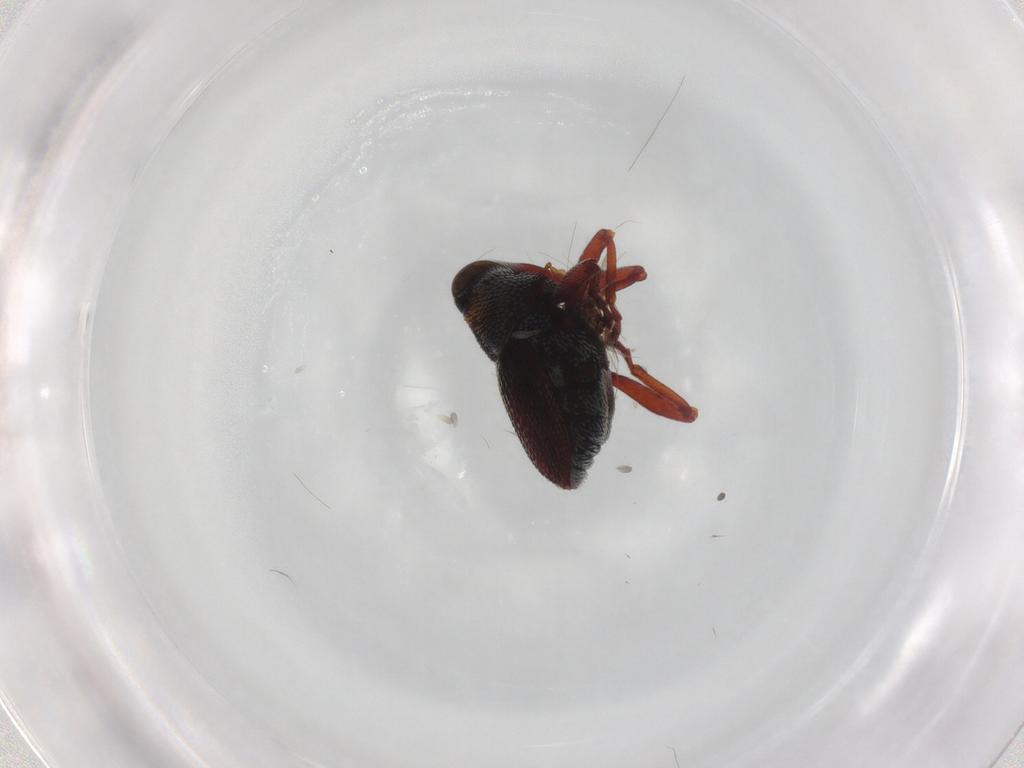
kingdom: Animalia
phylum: Arthropoda
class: Insecta
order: Coleoptera
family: Curculionidae
